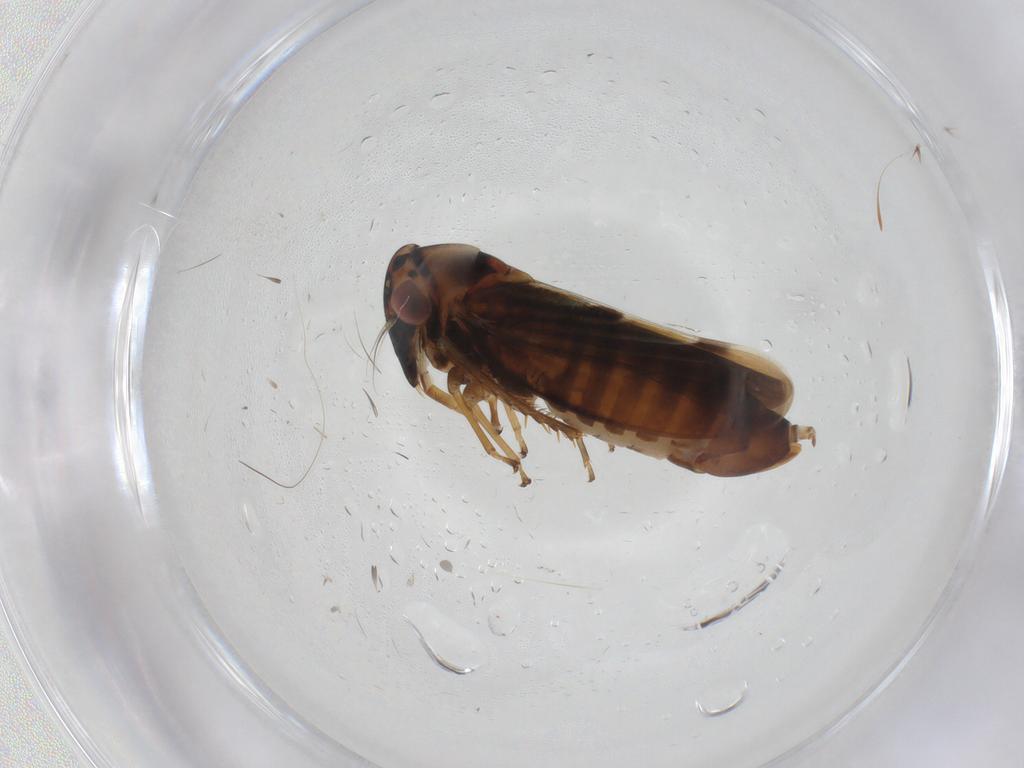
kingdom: Animalia
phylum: Arthropoda
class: Insecta
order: Hemiptera
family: Cicadellidae
